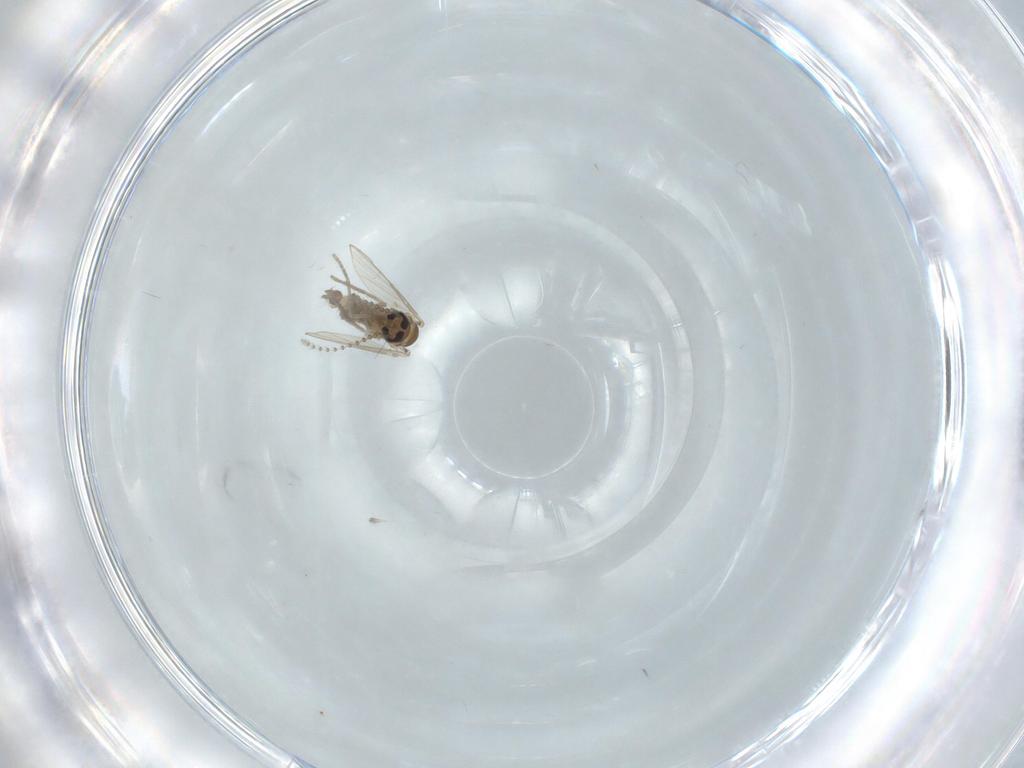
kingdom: Animalia
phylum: Arthropoda
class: Insecta
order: Diptera
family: Psychodidae
